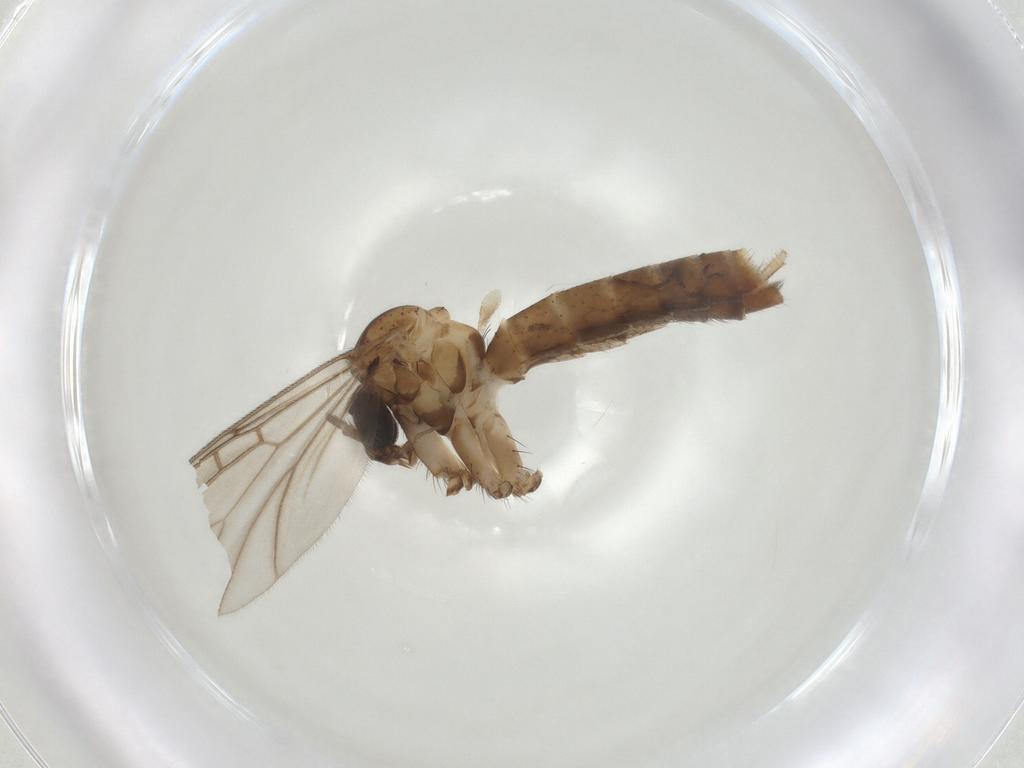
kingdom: Animalia
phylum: Arthropoda
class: Insecta
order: Diptera
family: Mycetophilidae
